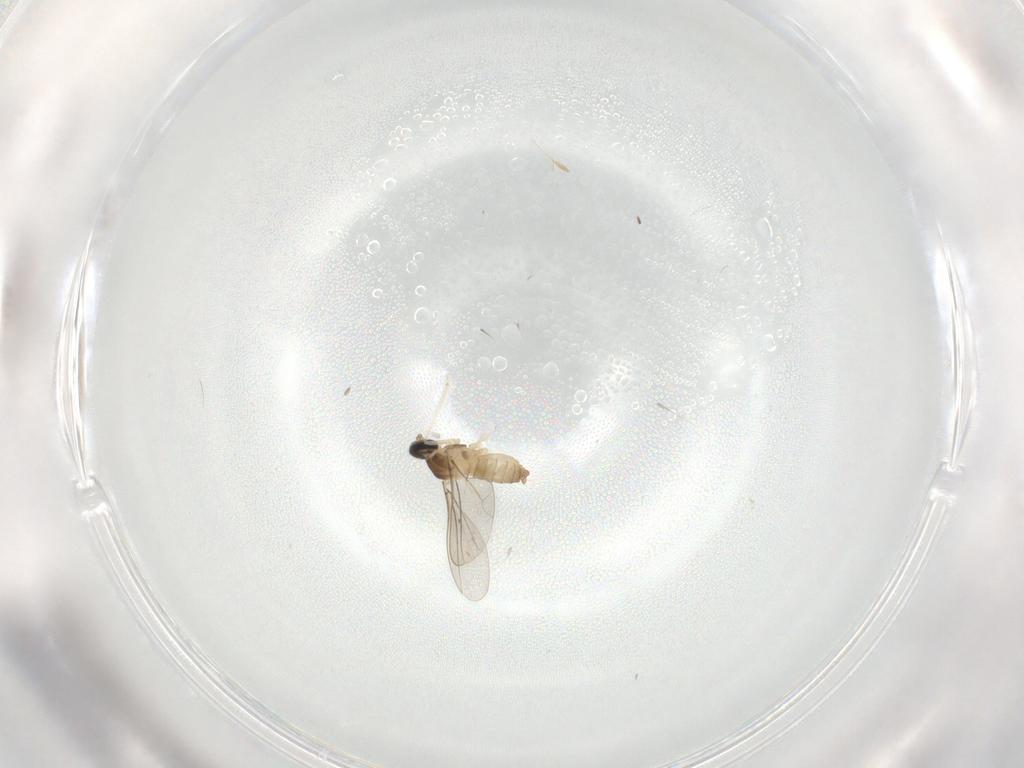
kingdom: Animalia
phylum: Arthropoda
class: Insecta
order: Diptera
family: Cecidomyiidae
